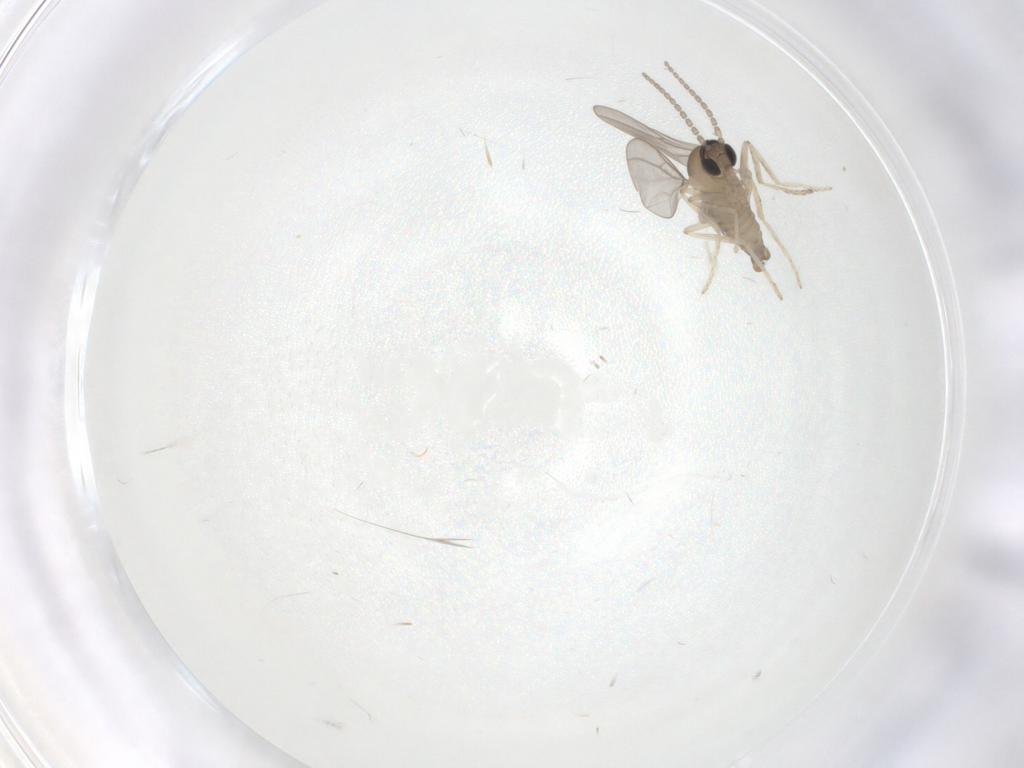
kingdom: Animalia
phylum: Arthropoda
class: Insecta
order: Diptera
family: Cecidomyiidae
